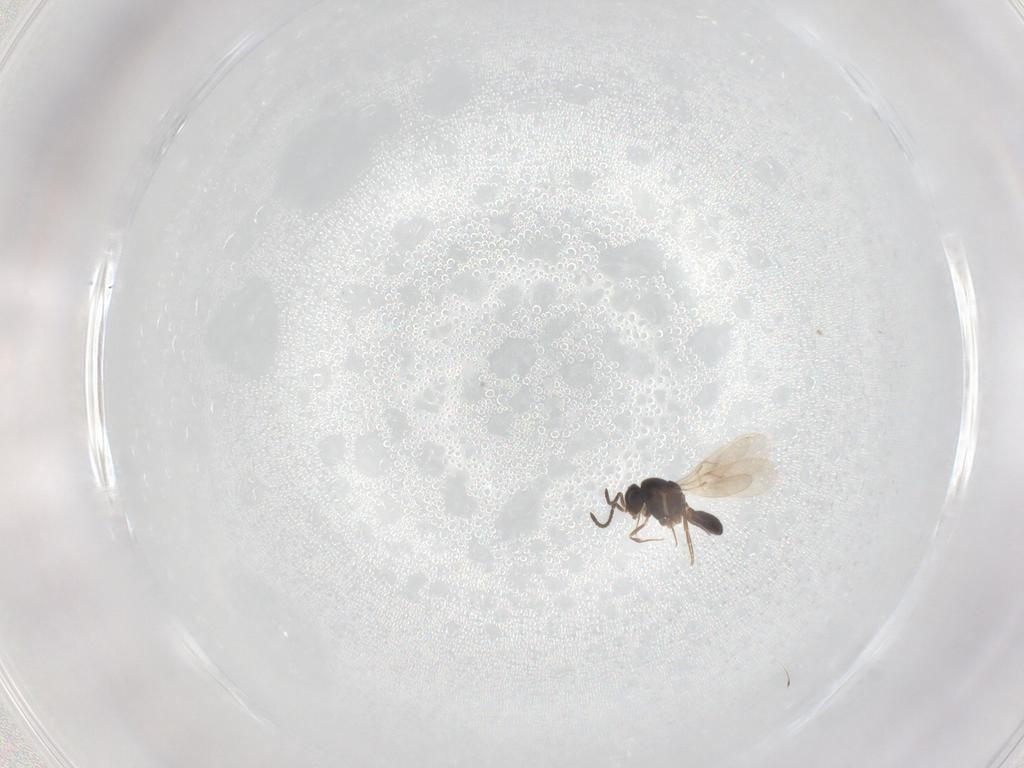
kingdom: Animalia
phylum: Arthropoda
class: Insecta
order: Hymenoptera
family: Scelionidae
